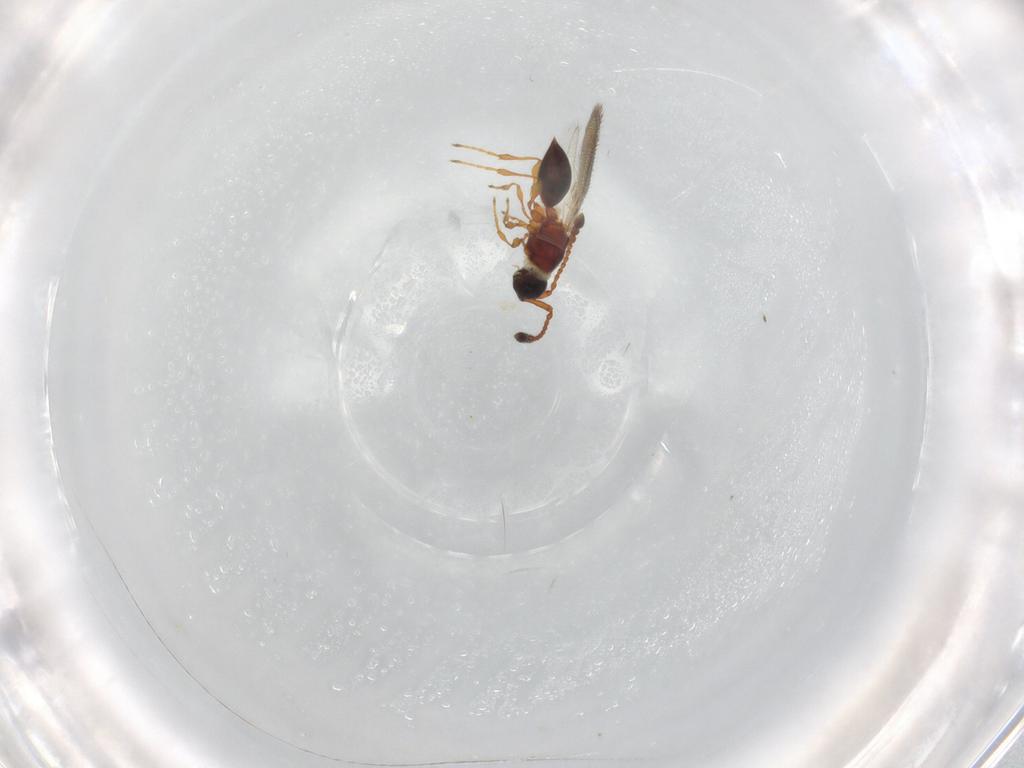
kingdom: Animalia
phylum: Arthropoda
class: Insecta
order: Hymenoptera
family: Diapriidae
